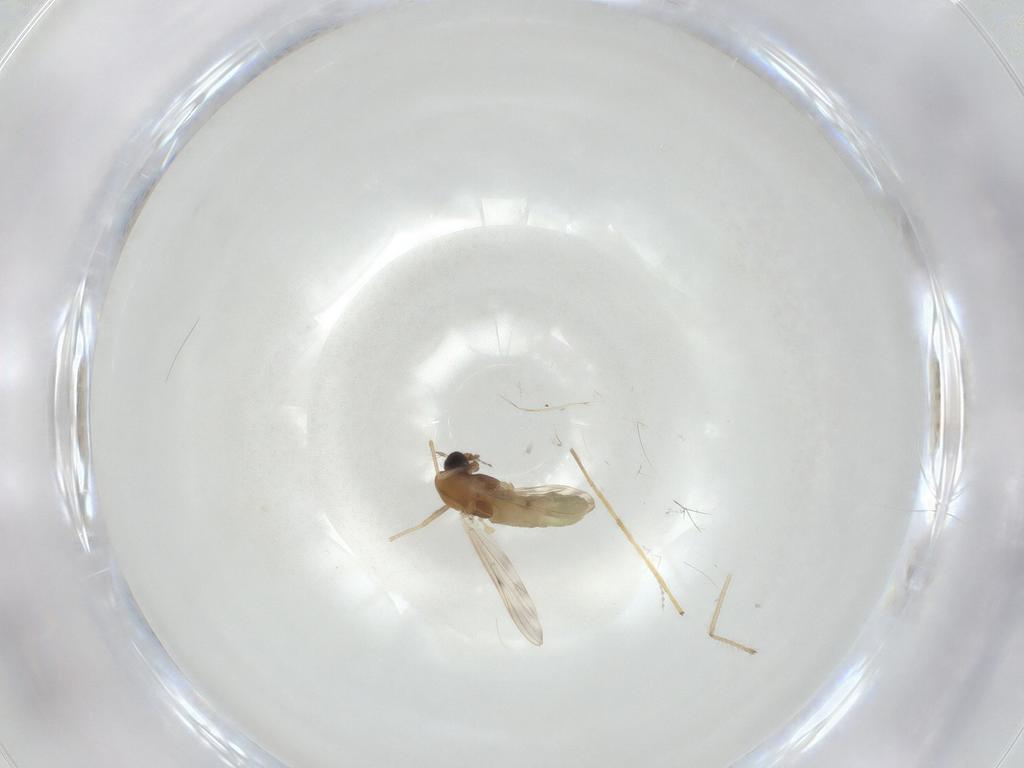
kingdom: Animalia
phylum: Arthropoda
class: Insecta
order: Diptera
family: Chironomidae
